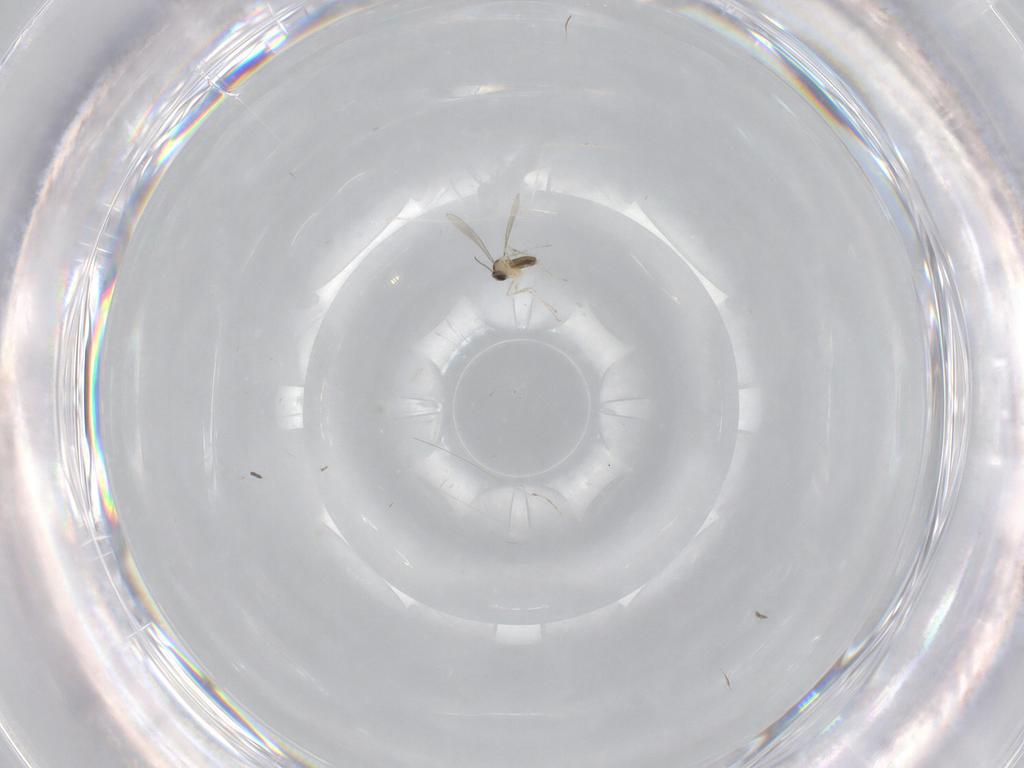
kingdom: Animalia
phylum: Arthropoda
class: Insecta
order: Diptera
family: Cecidomyiidae
